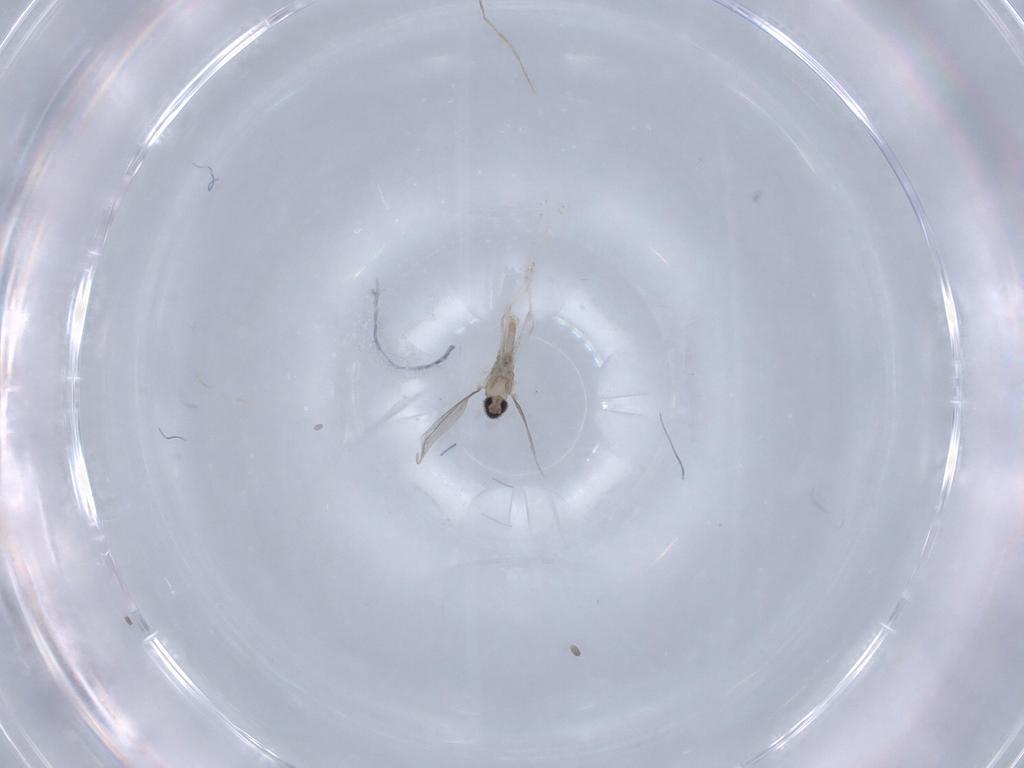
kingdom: Animalia
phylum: Arthropoda
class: Insecta
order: Diptera
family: Cecidomyiidae
